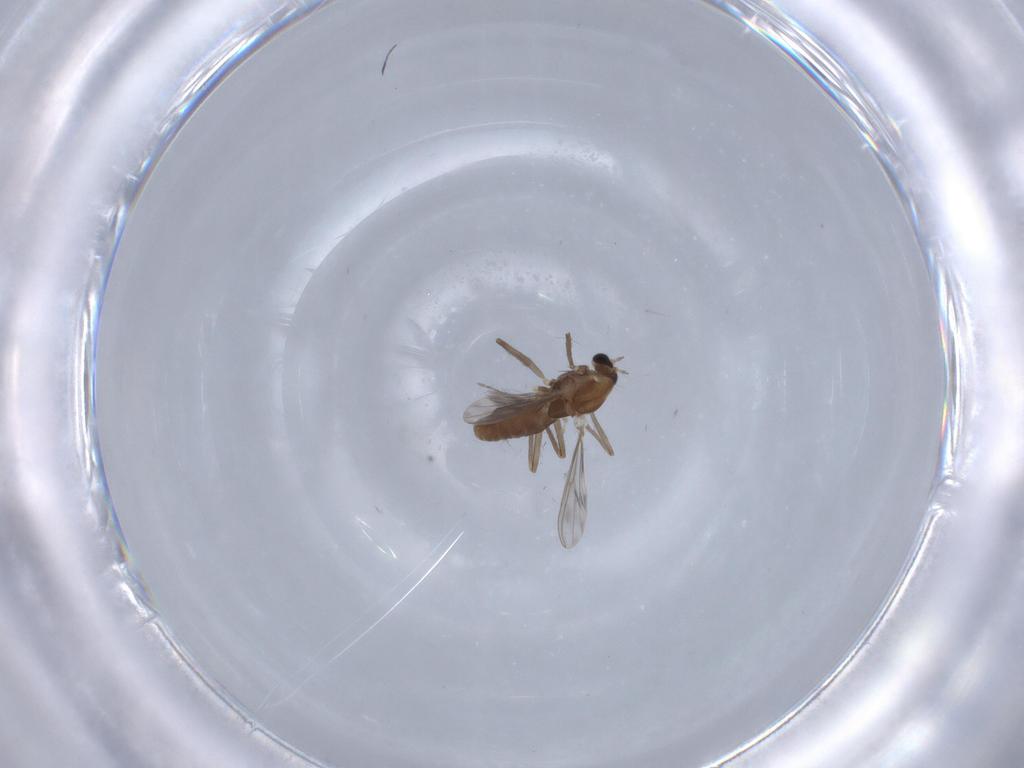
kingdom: Animalia
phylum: Arthropoda
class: Insecta
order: Diptera
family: Chironomidae
